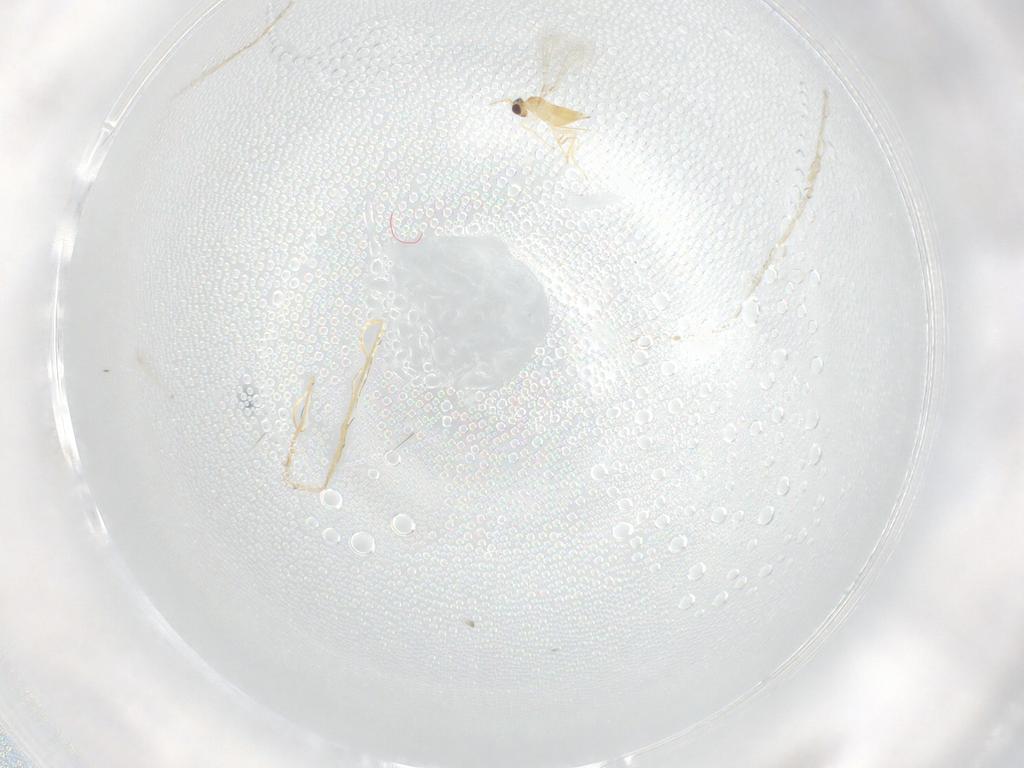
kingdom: Animalia
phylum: Arthropoda
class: Insecta
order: Hymenoptera
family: Mymaridae
